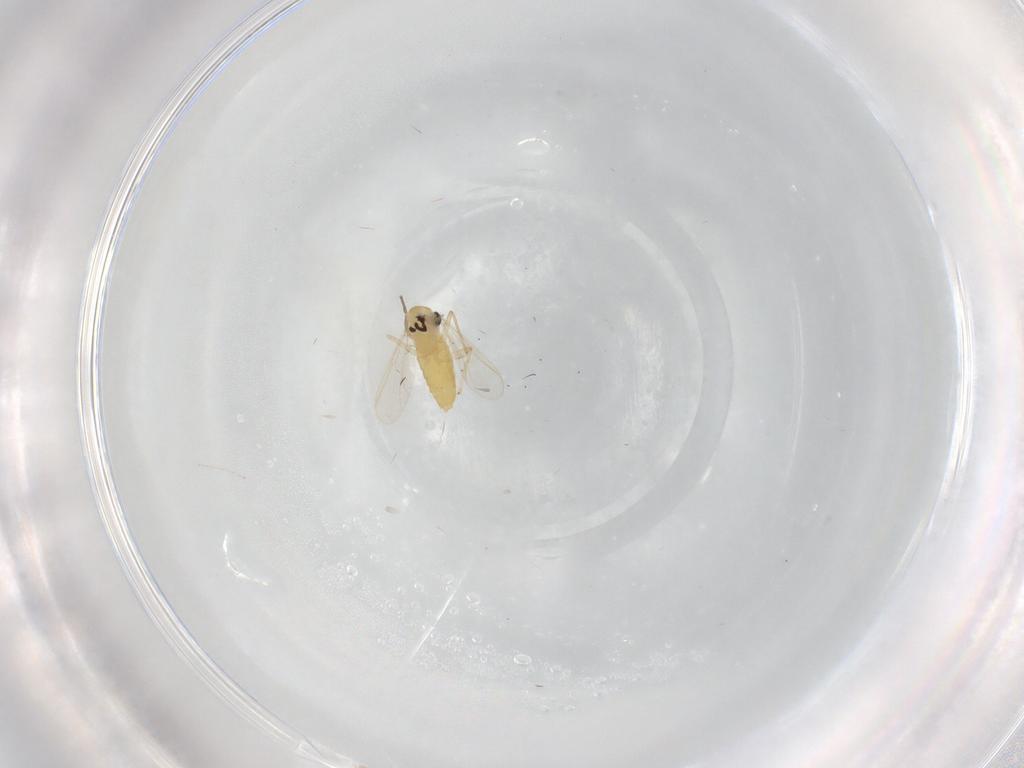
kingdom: Animalia
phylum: Arthropoda
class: Insecta
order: Diptera
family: Chironomidae
